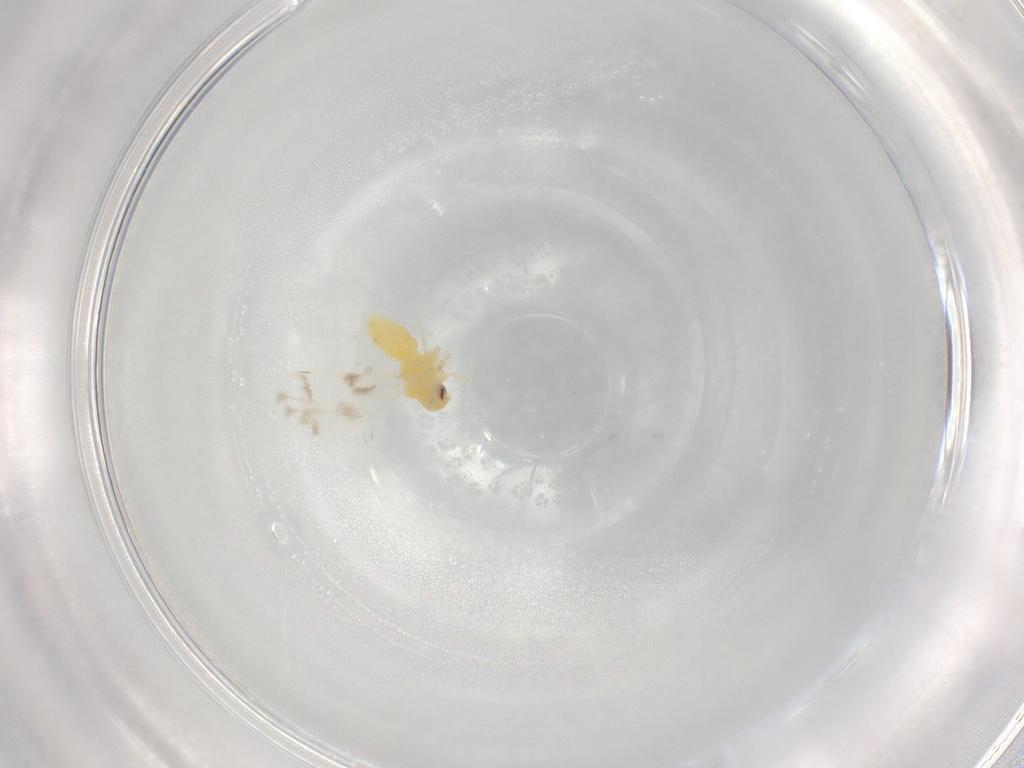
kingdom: Animalia
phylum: Arthropoda
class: Insecta
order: Hemiptera
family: Aleyrodidae
